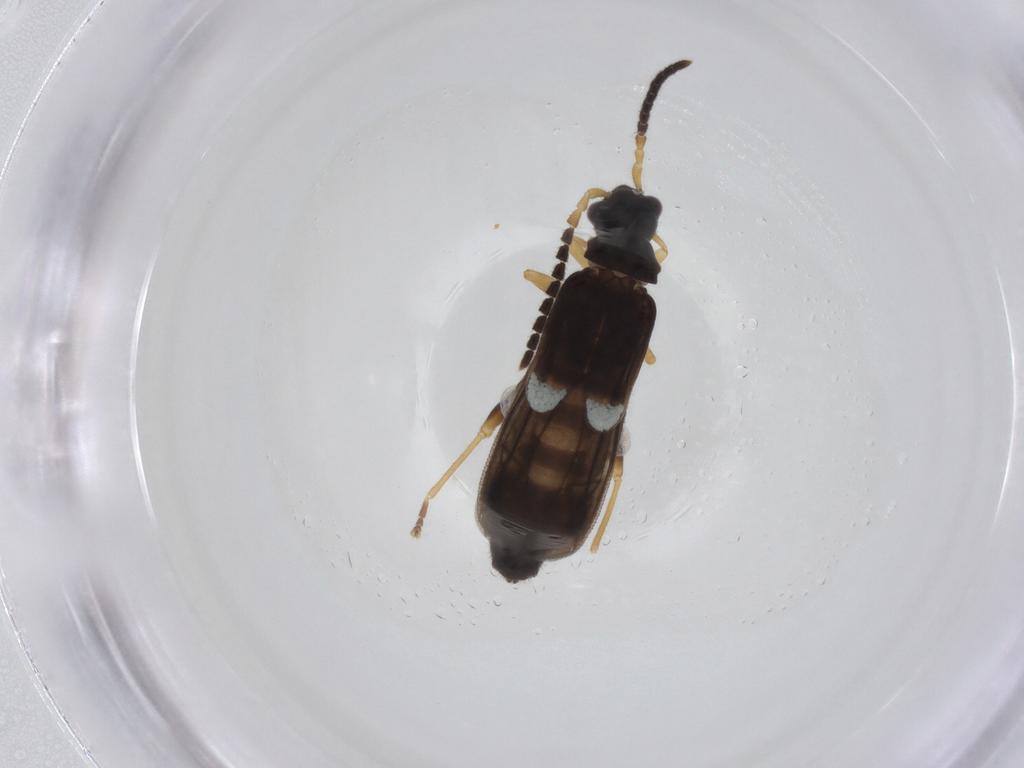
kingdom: Animalia
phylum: Arthropoda
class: Insecta
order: Coleoptera
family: Cantharidae
